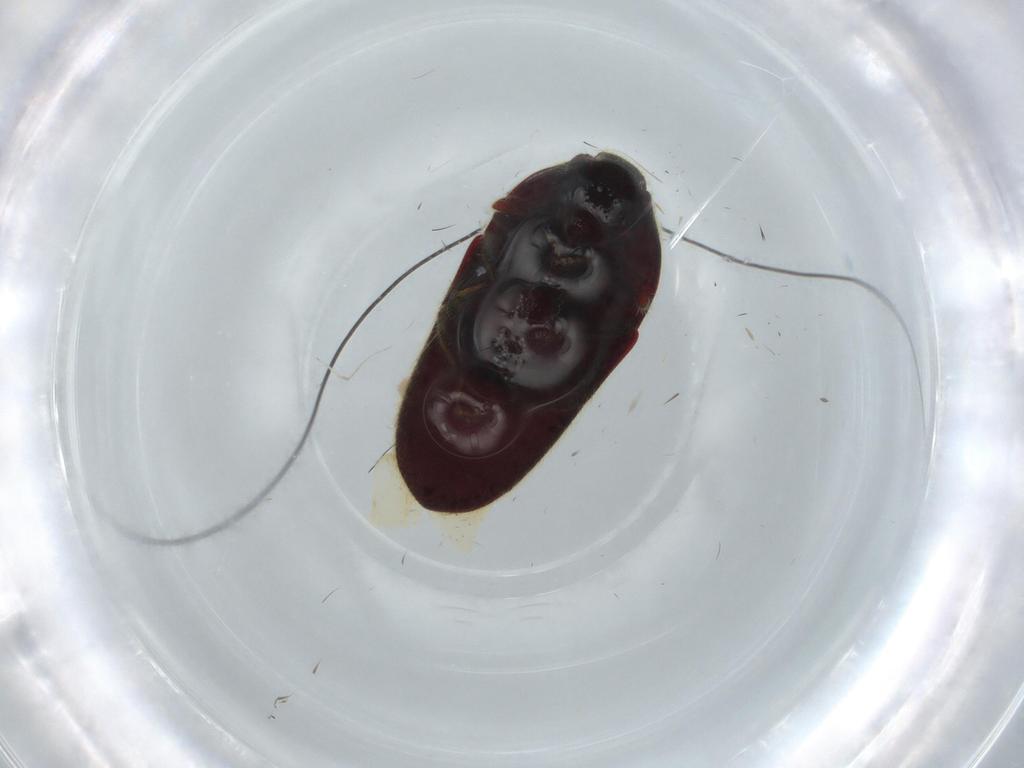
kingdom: Animalia
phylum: Arthropoda
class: Insecta
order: Coleoptera
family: Throscidae
